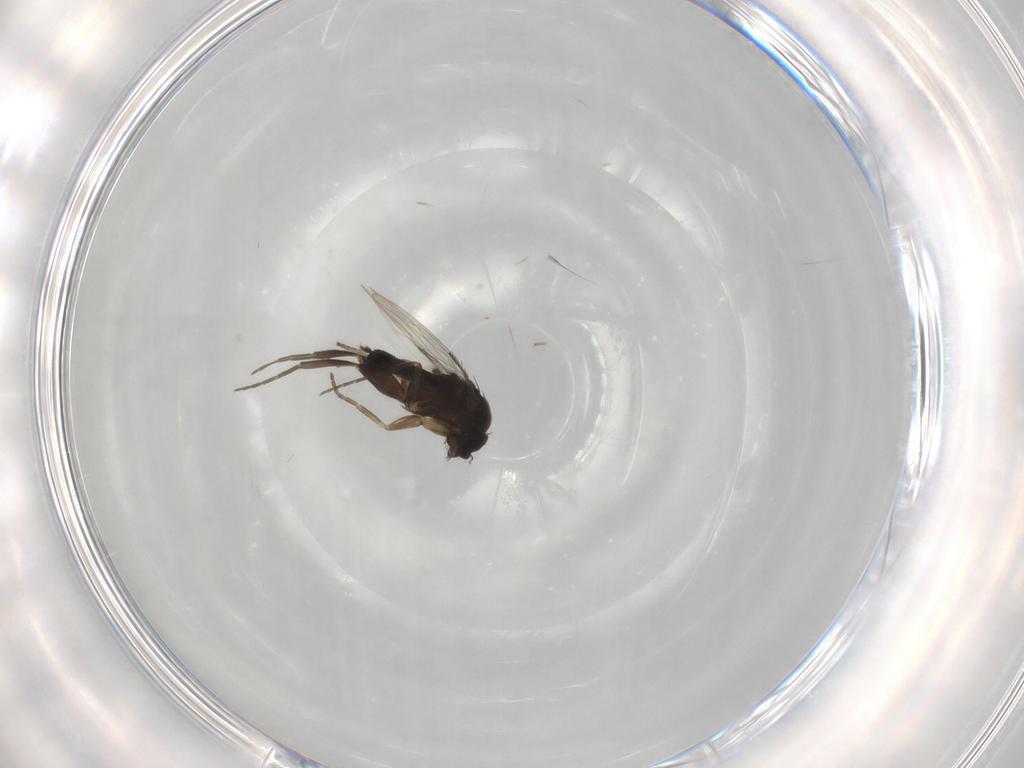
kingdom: Animalia
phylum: Arthropoda
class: Insecta
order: Diptera
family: Phoridae
